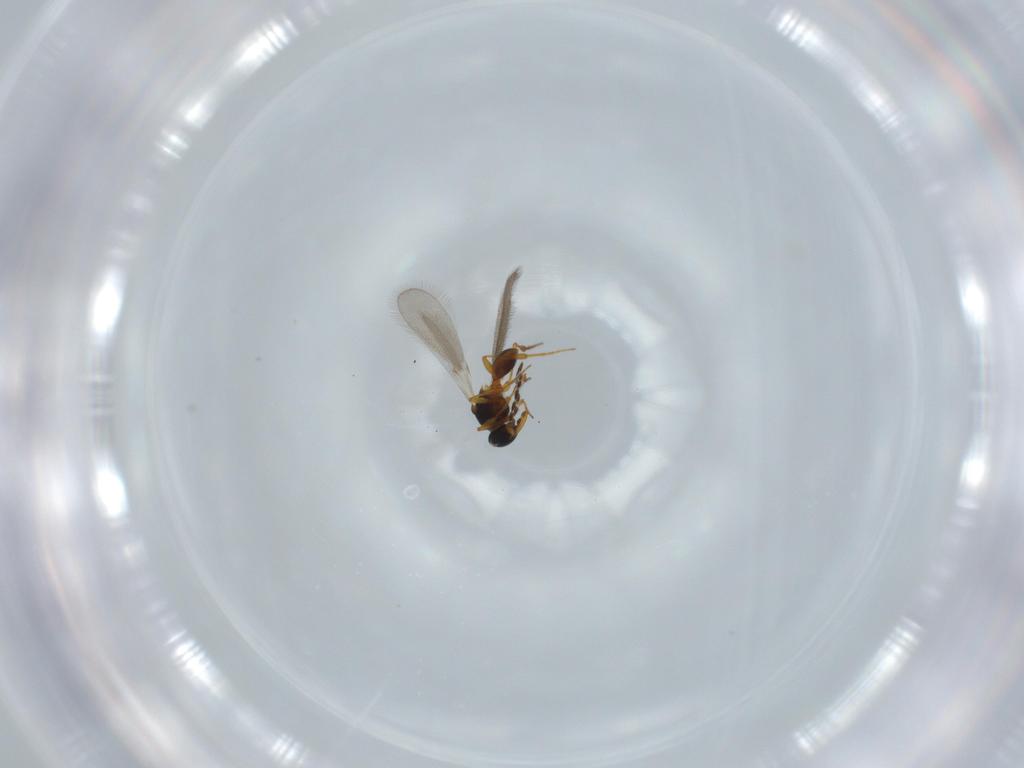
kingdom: Animalia
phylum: Arthropoda
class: Insecta
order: Hymenoptera
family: Platygastridae
